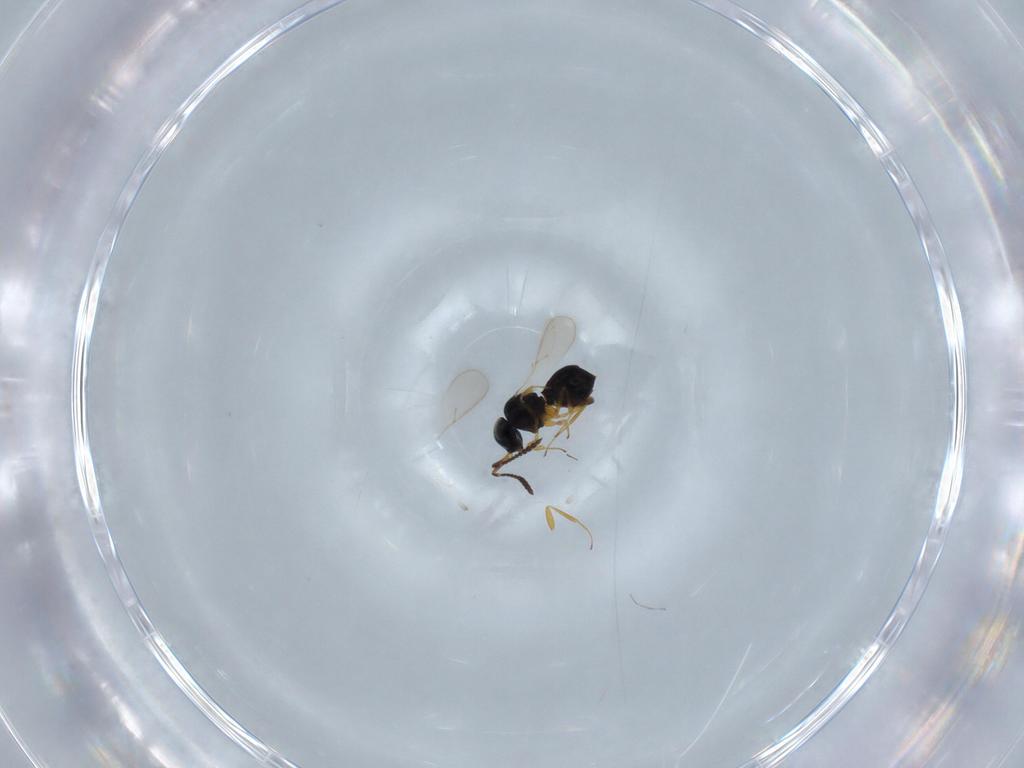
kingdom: Animalia
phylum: Arthropoda
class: Insecta
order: Hymenoptera
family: Scelionidae
